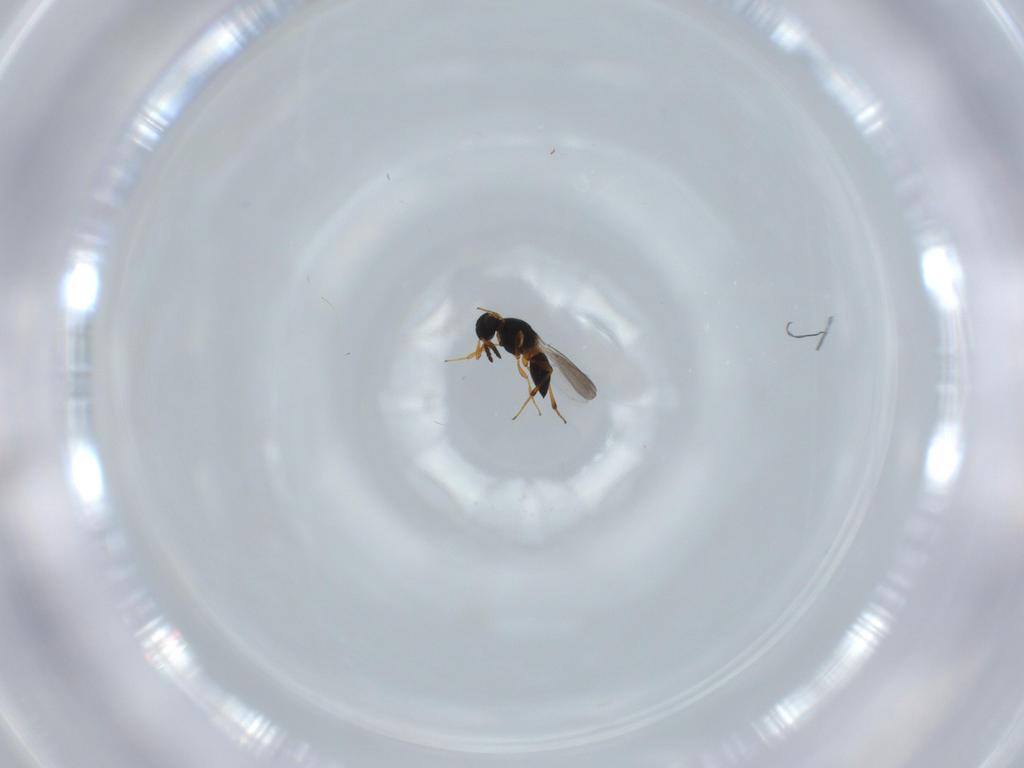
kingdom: Animalia
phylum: Arthropoda
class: Insecta
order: Hymenoptera
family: Platygastridae
